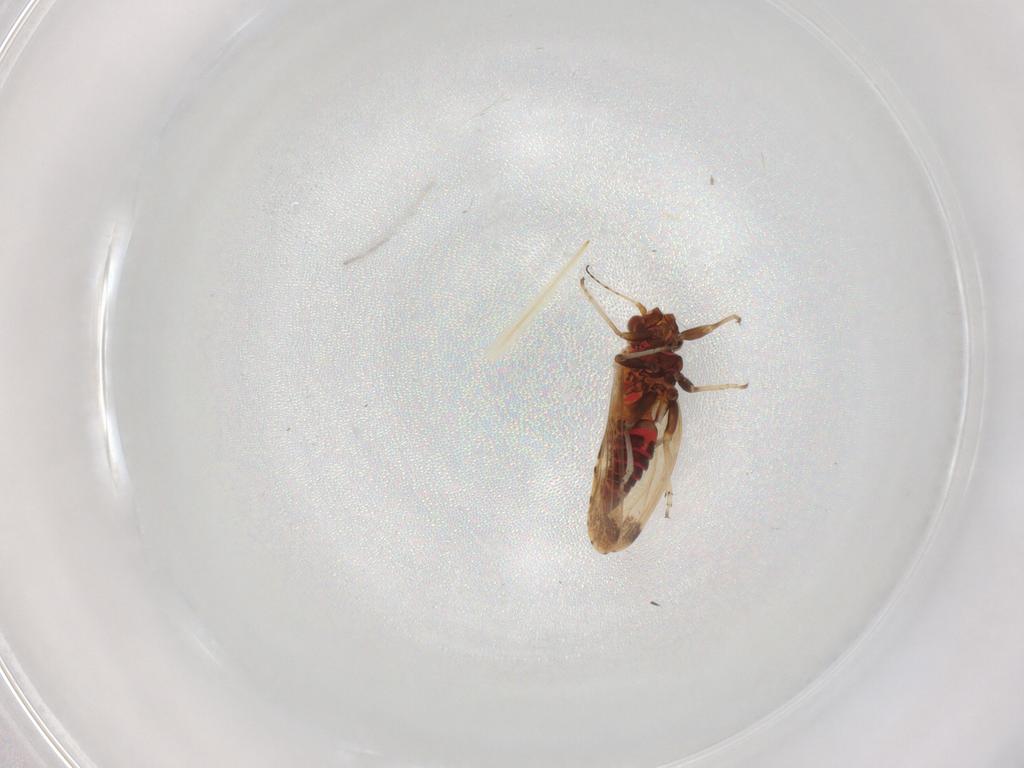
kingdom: Animalia
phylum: Arthropoda
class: Insecta
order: Hemiptera
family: Psyllidae
